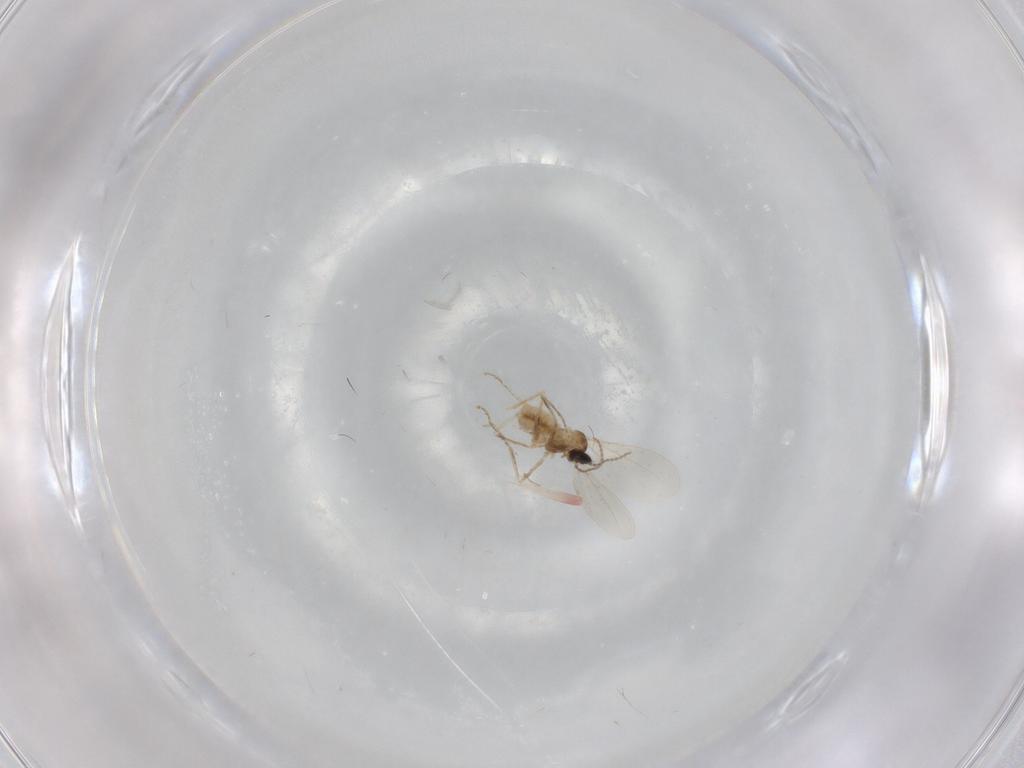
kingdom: Animalia
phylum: Arthropoda
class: Insecta
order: Diptera
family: Cecidomyiidae
